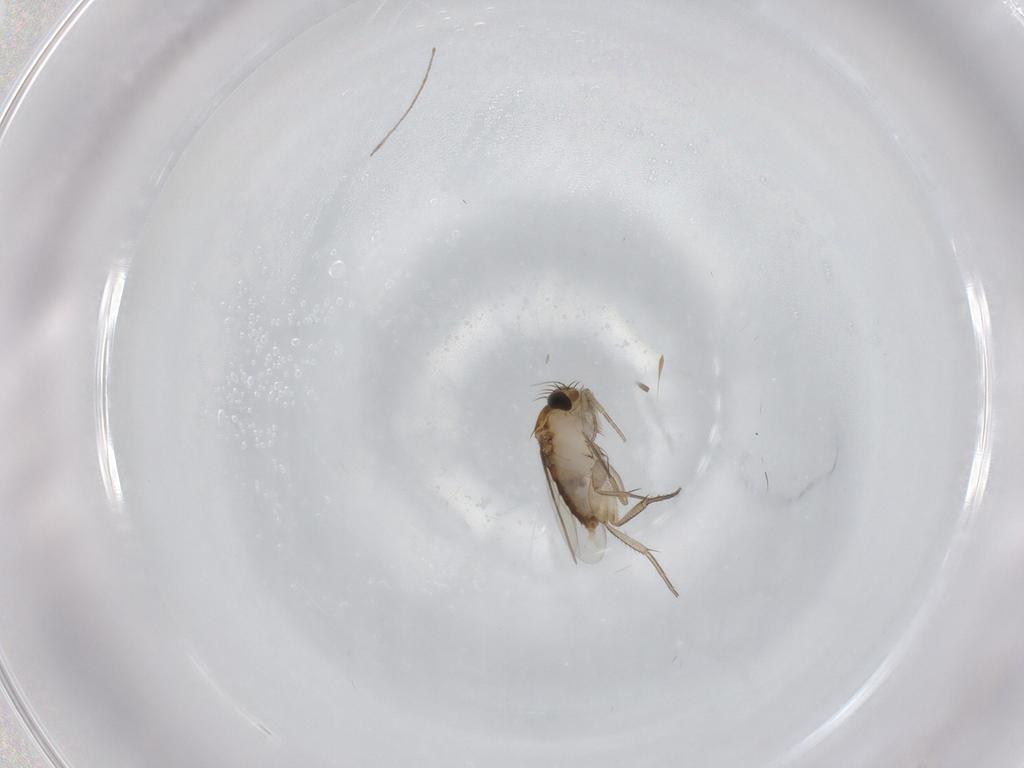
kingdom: Animalia
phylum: Arthropoda
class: Insecta
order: Diptera
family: Phoridae
